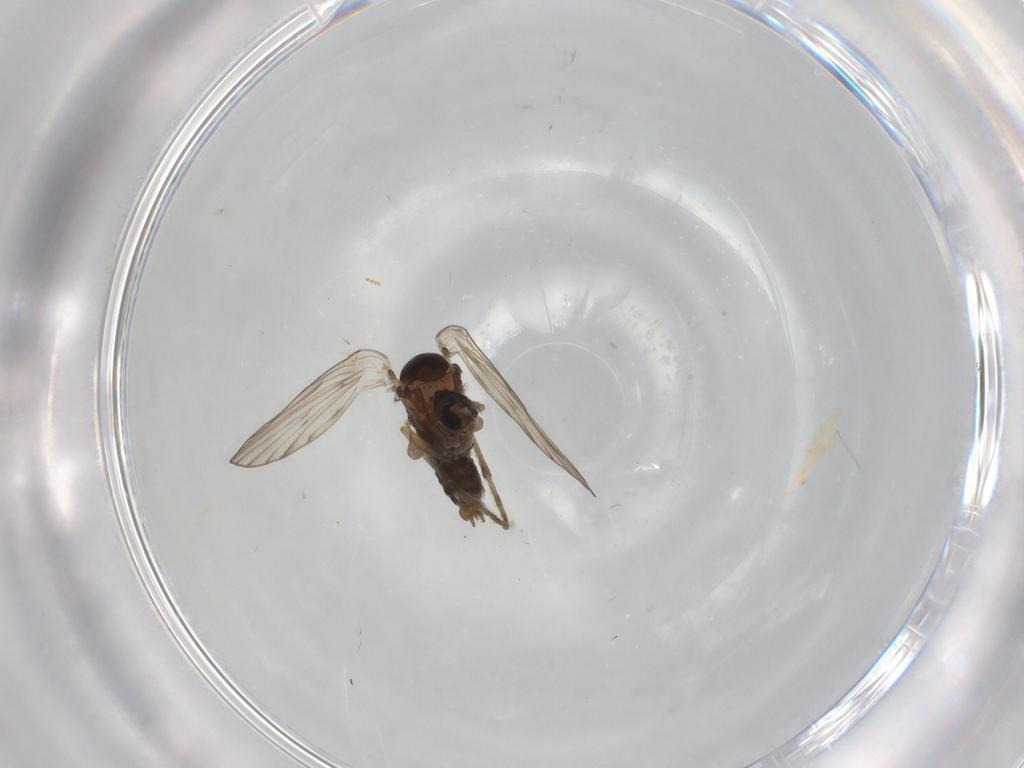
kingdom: Animalia
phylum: Arthropoda
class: Insecta
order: Diptera
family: Psychodidae
